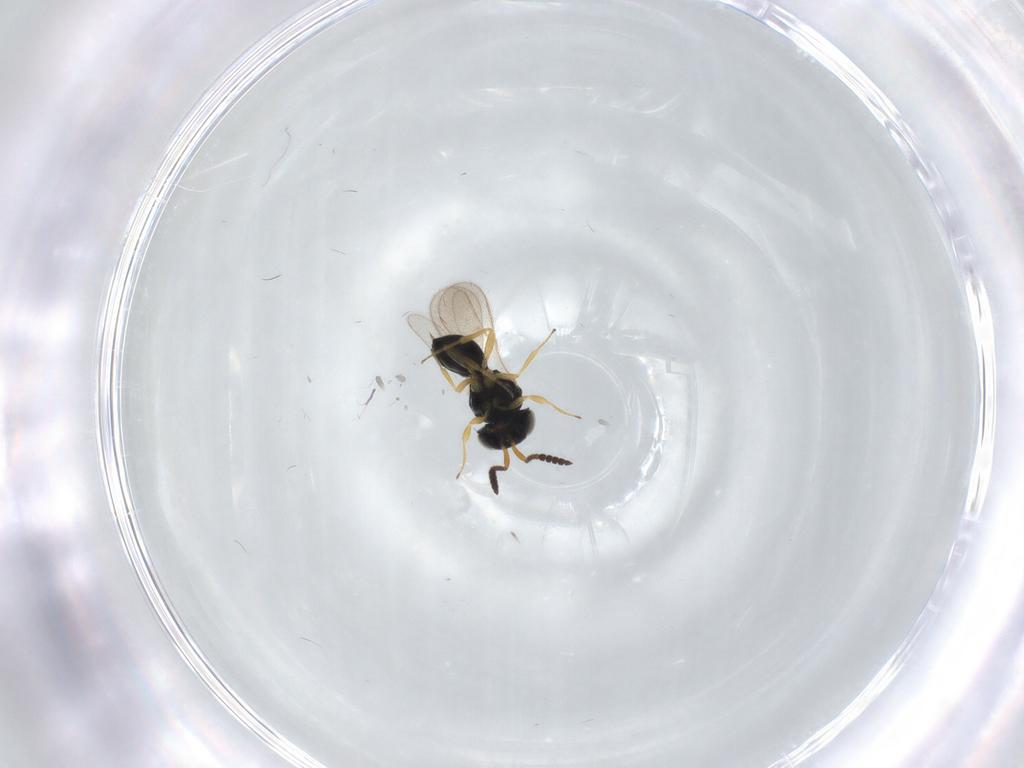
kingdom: Animalia
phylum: Arthropoda
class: Insecta
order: Hymenoptera
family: Scelionidae
